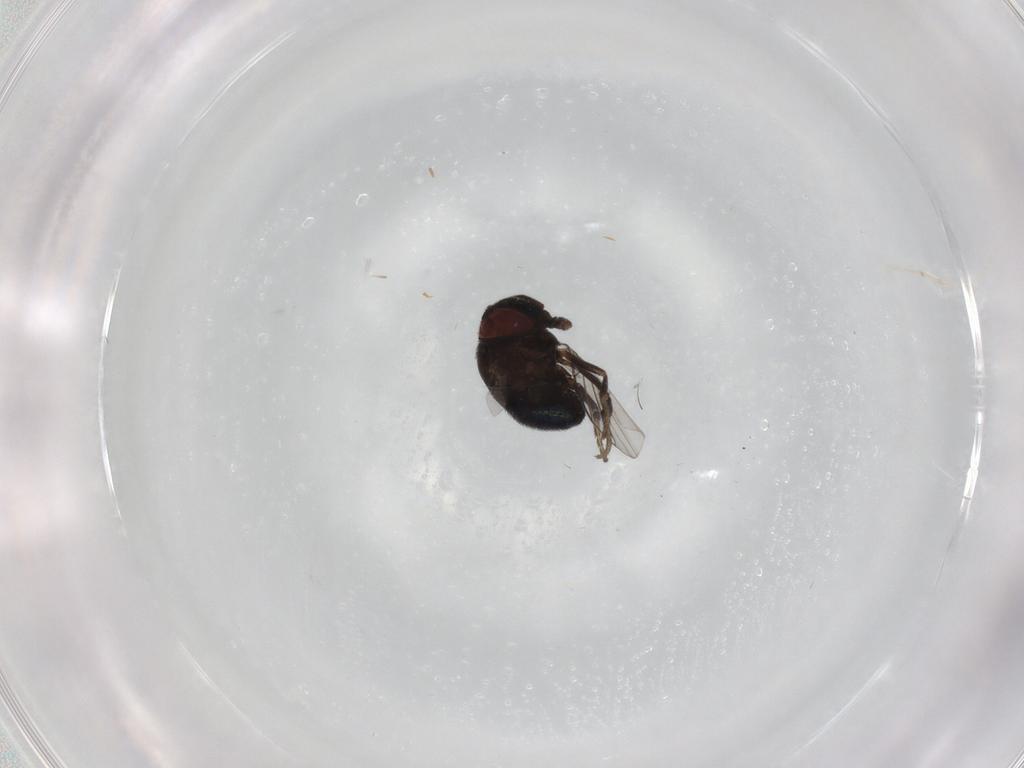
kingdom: Animalia
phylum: Arthropoda
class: Insecta
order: Diptera
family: Cryptochetidae
